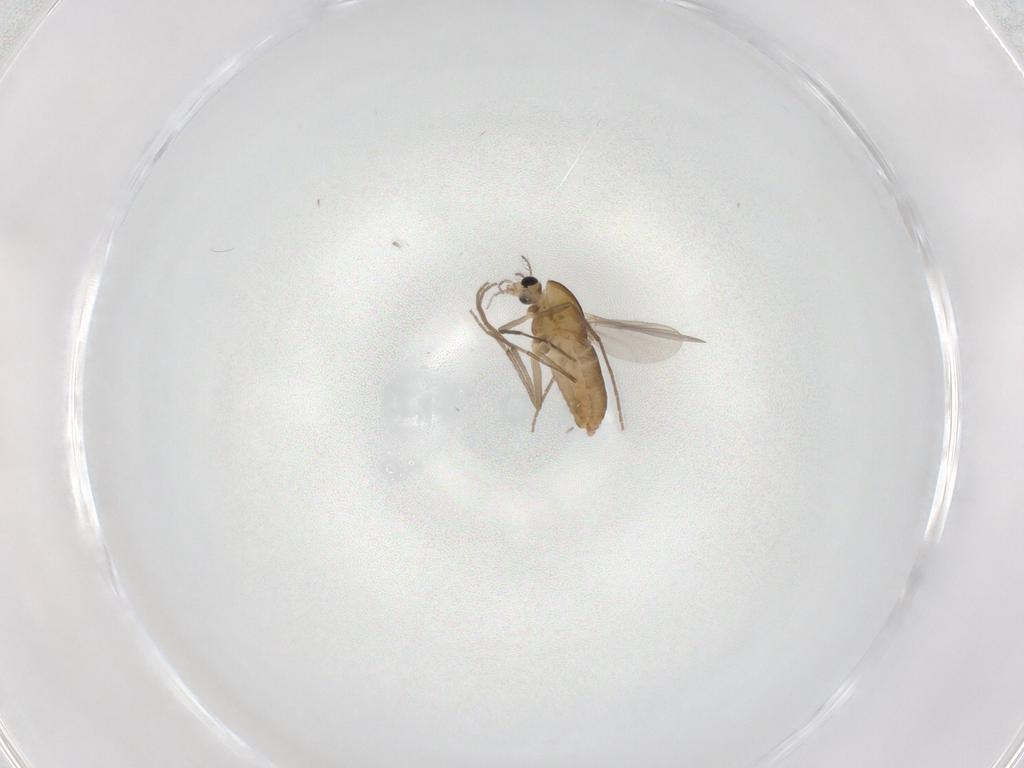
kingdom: Animalia
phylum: Arthropoda
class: Insecta
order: Diptera
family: Chironomidae
